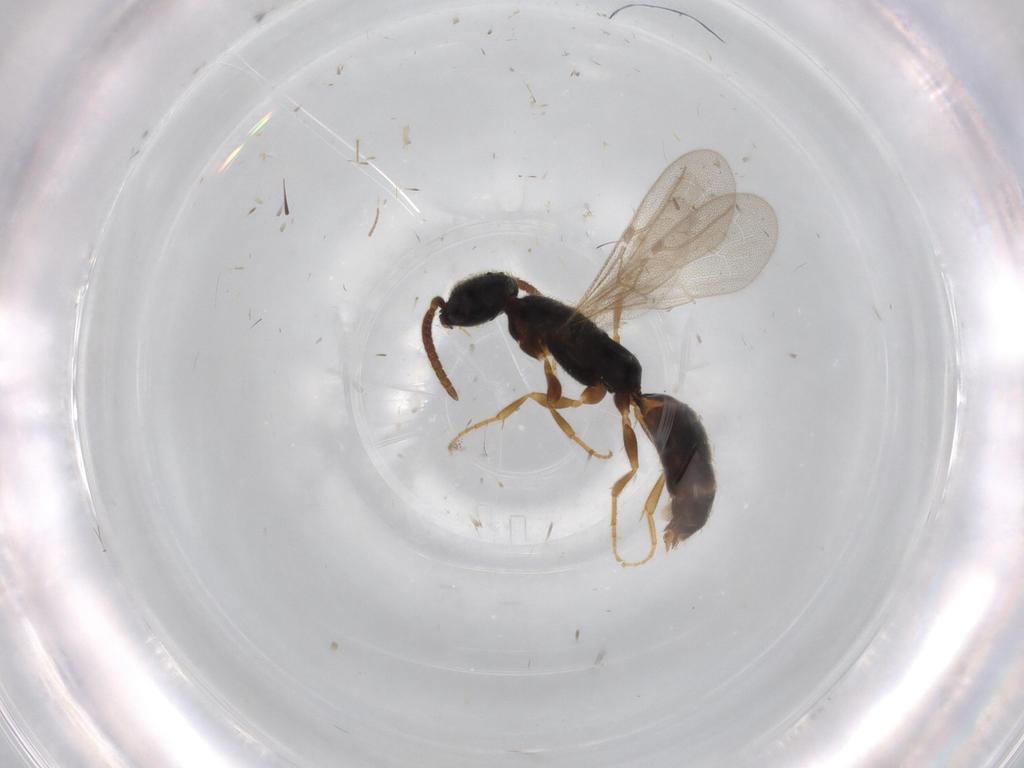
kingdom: Animalia
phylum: Arthropoda
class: Insecta
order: Hymenoptera
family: Bethylidae
